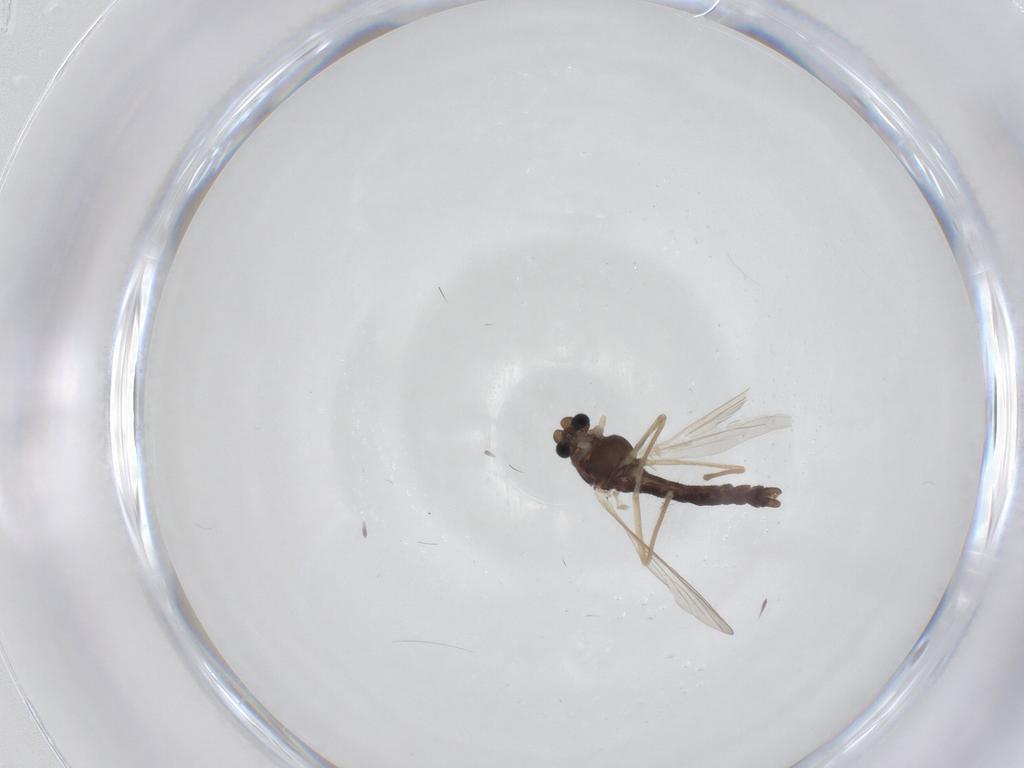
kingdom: Animalia
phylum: Arthropoda
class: Insecta
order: Diptera
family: Chironomidae
